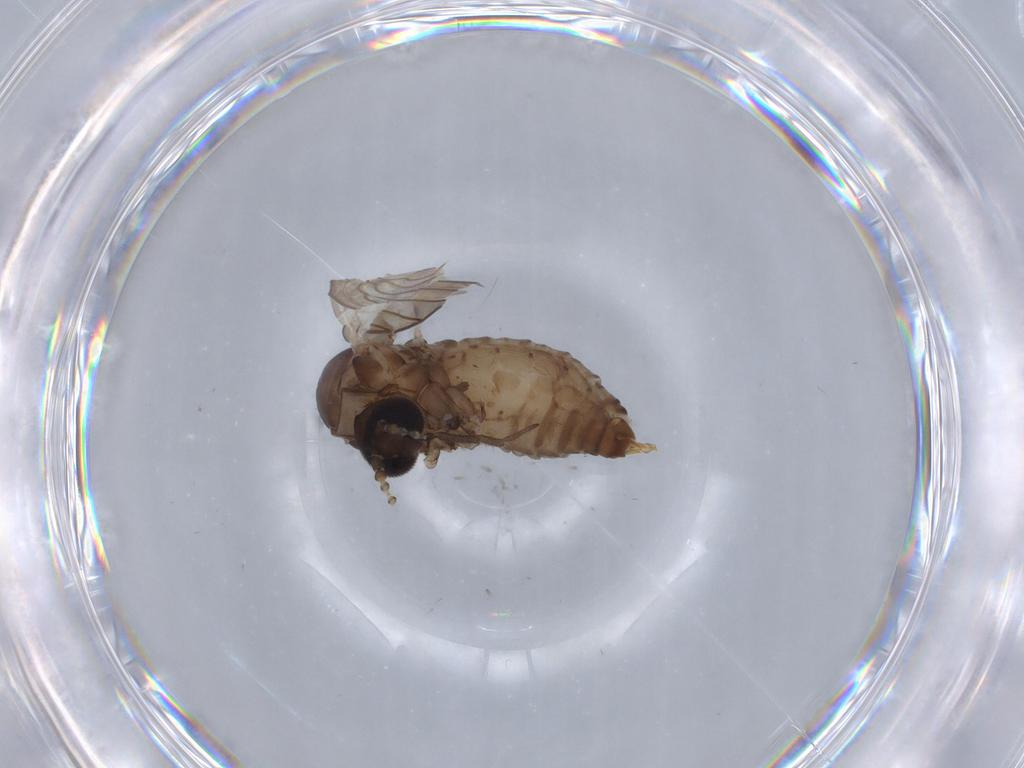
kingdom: Animalia
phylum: Arthropoda
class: Insecta
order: Diptera
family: Psychodidae
